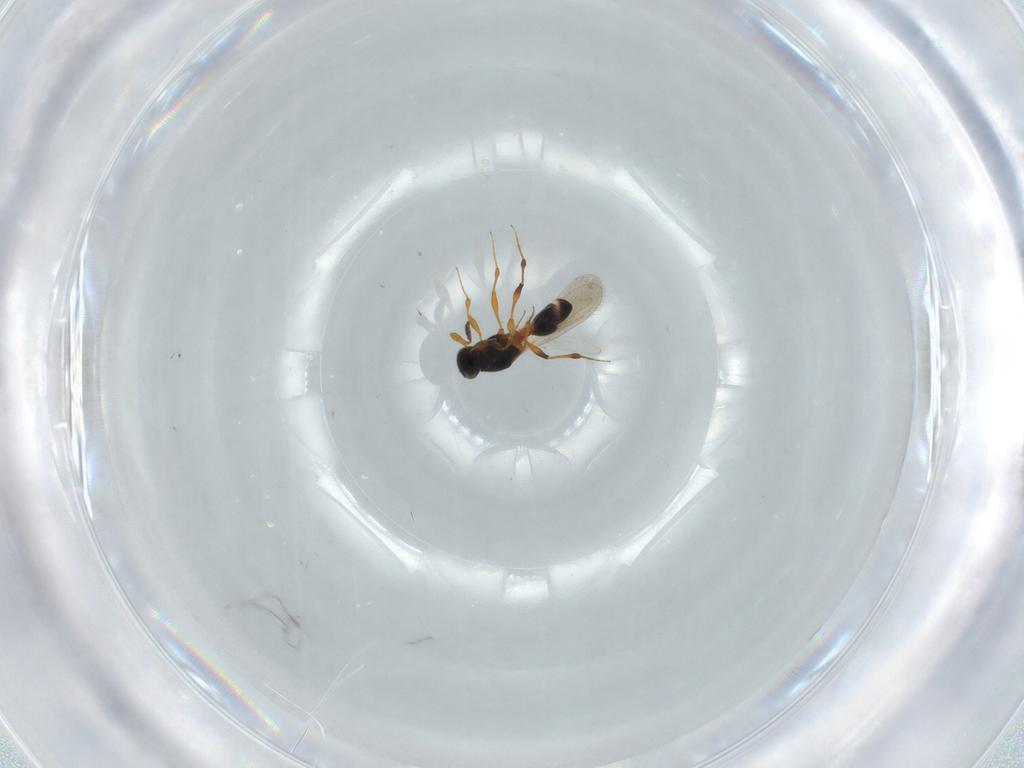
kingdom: Animalia
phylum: Arthropoda
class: Insecta
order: Hymenoptera
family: Platygastridae
